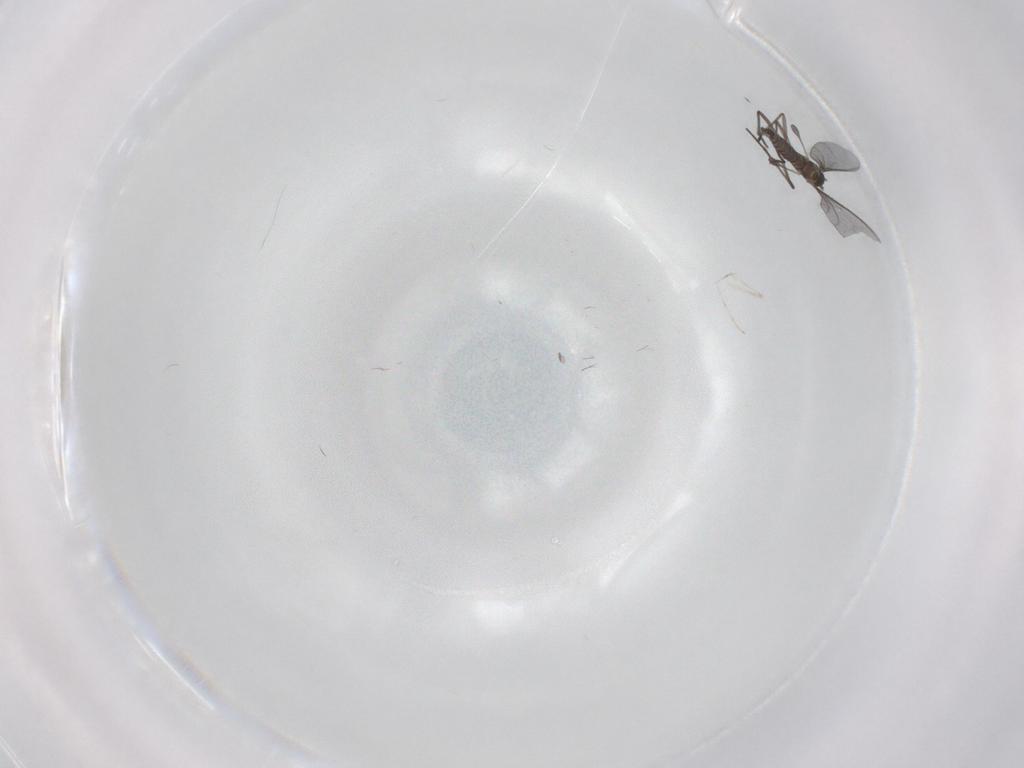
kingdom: Animalia
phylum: Arthropoda
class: Insecta
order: Diptera
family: Sciaridae
